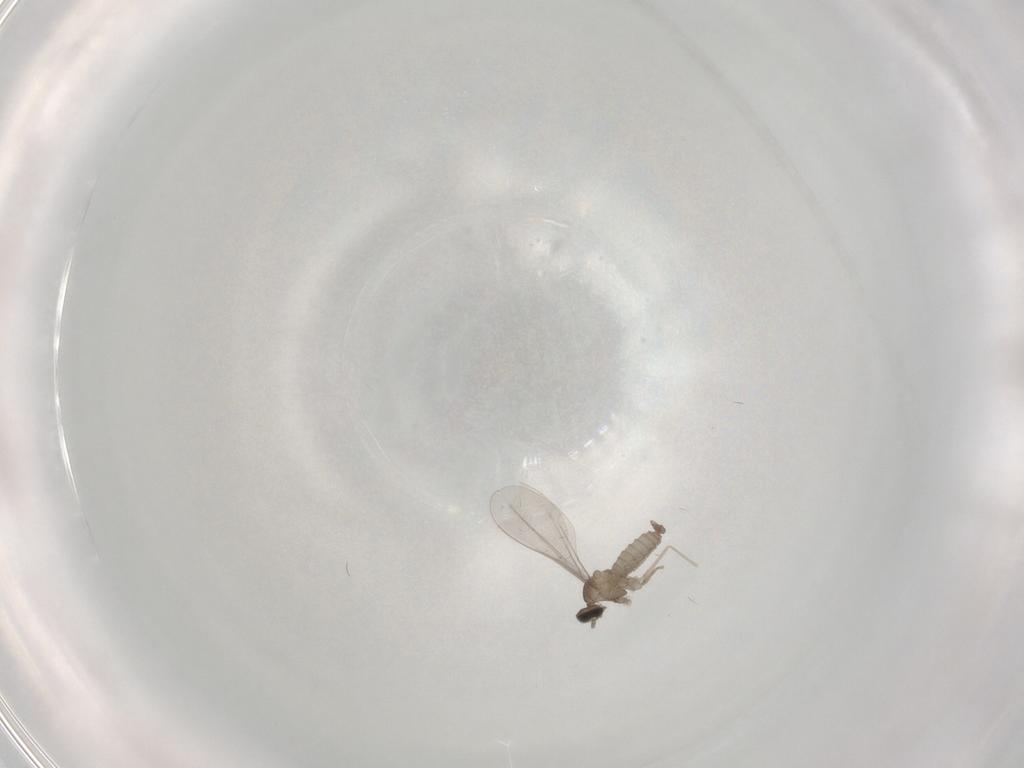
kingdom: Animalia
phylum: Arthropoda
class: Insecta
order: Diptera
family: Cecidomyiidae
